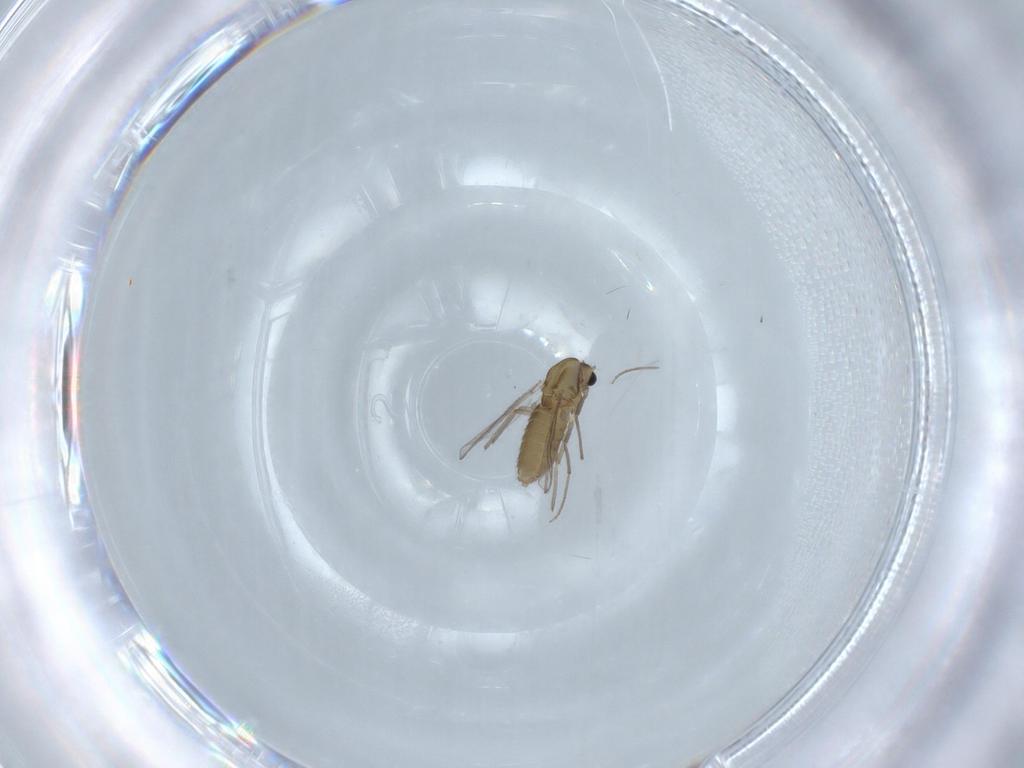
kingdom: Animalia
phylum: Arthropoda
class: Insecta
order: Diptera
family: Chironomidae
